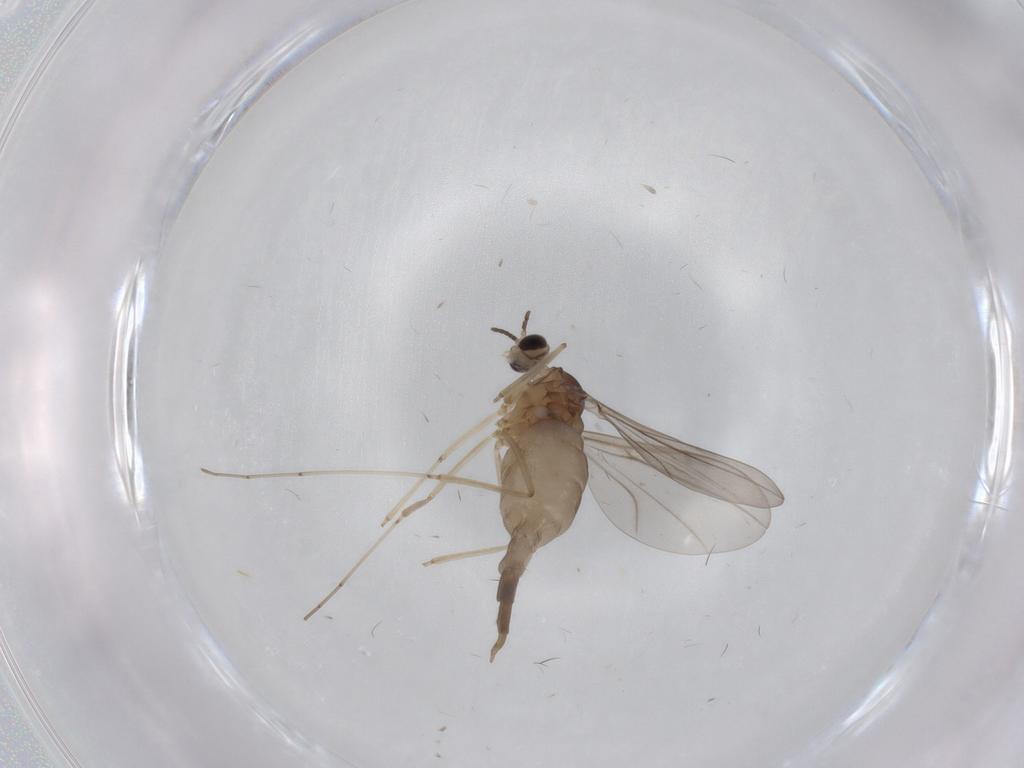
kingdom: Animalia
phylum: Arthropoda
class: Insecta
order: Diptera
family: Cecidomyiidae
